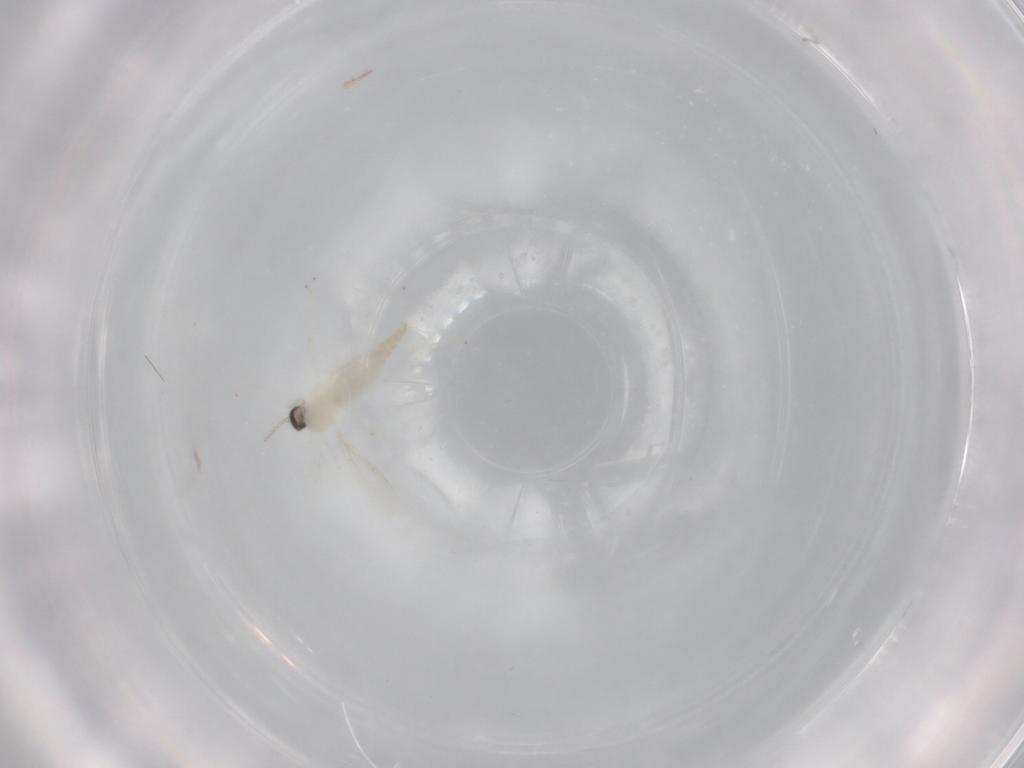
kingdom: Animalia
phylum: Arthropoda
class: Insecta
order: Diptera
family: Cecidomyiidae
